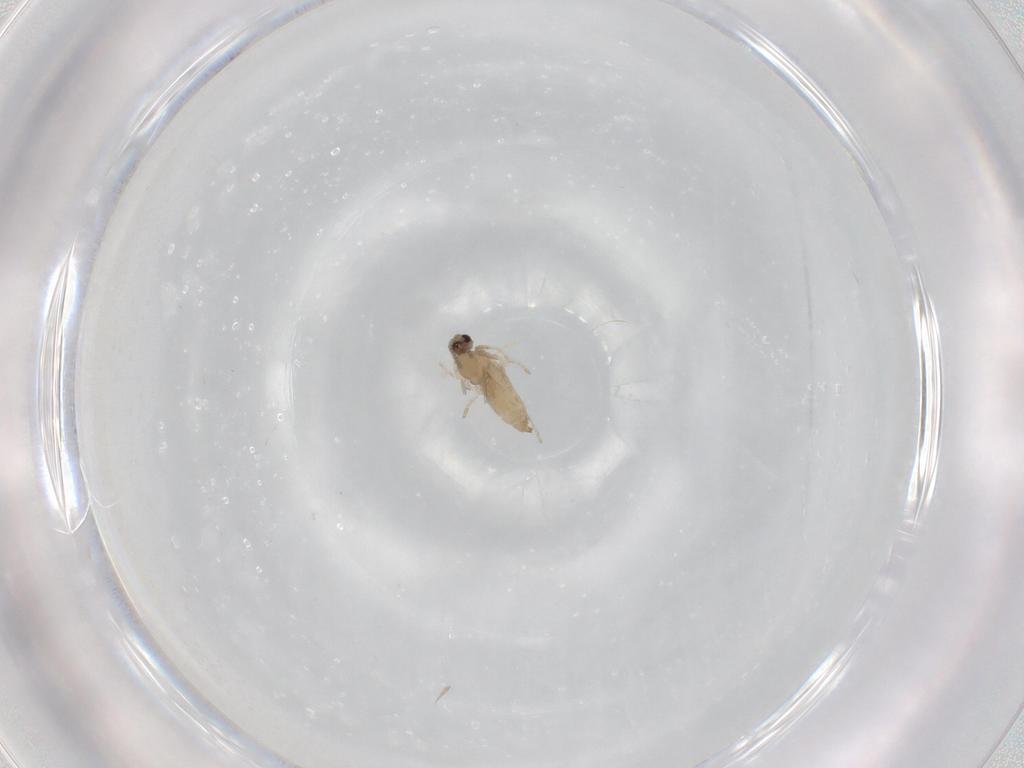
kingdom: Animalia
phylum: Arthropoda
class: Insecta
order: Diptera
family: Cecidomyiidae
